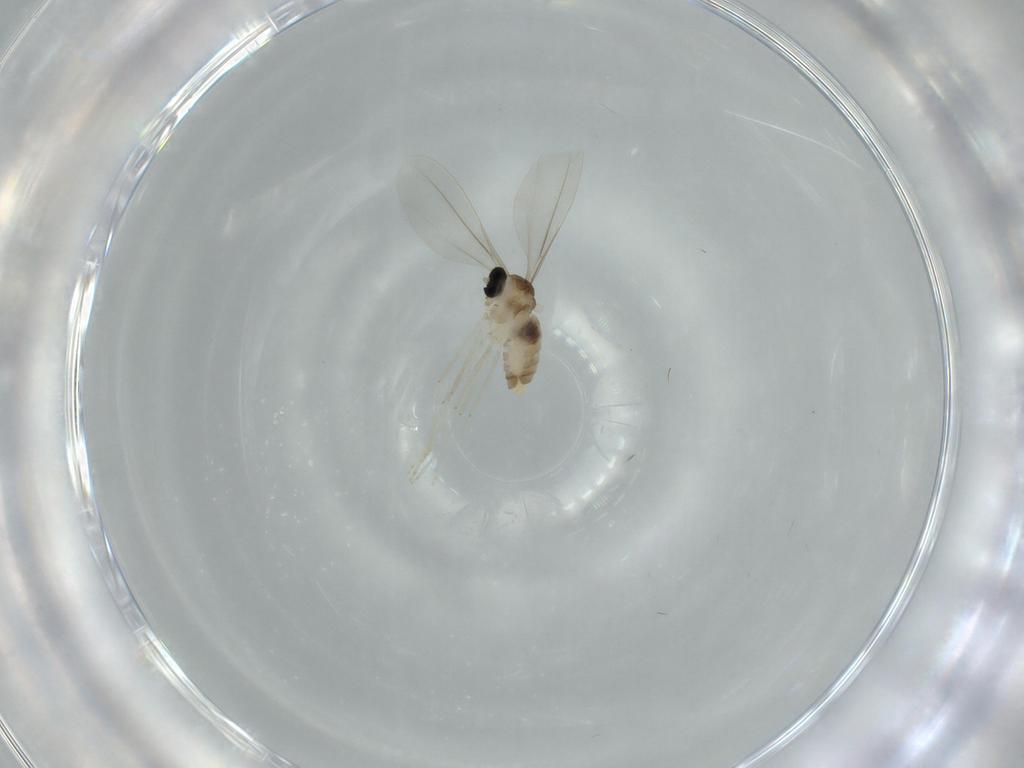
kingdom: Animalia
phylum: Arthropoda
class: Insecta
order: Diptera
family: Cecidomyiidae
